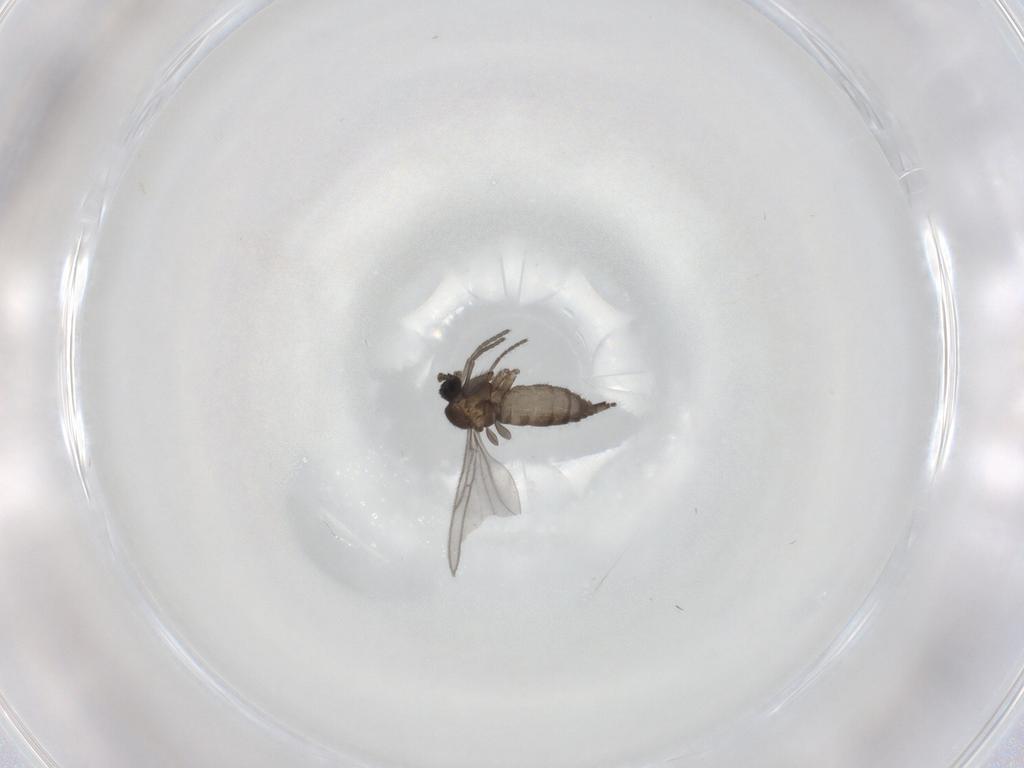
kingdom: Animalia
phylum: Arthropoda
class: Insecta
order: Diptera
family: Sciaridae
